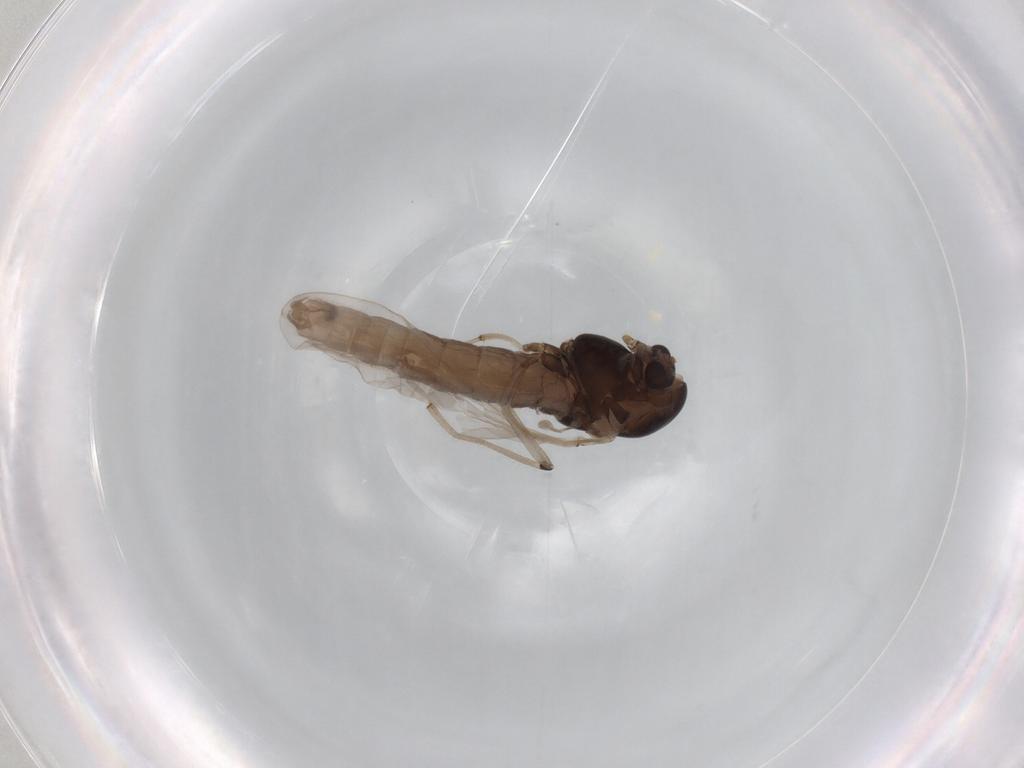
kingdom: Animalia
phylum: Arthropoda
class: Insecta
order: Diptera
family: Chironomidae
